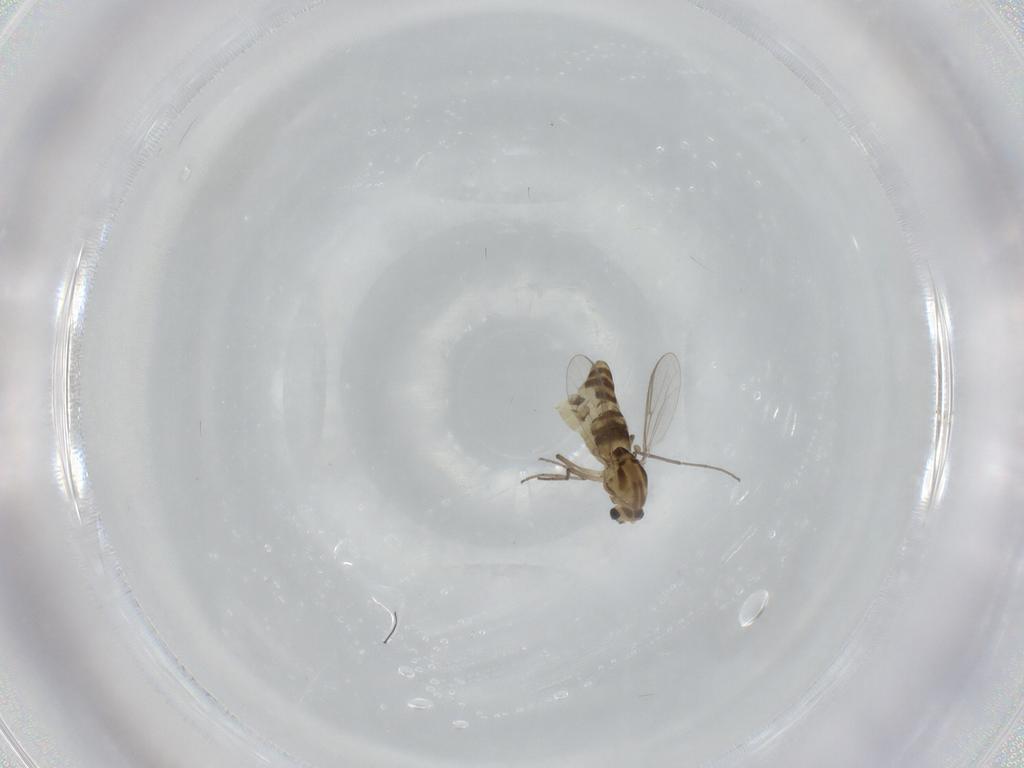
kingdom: Animalia
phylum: Arthropoda
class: Insecta
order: Diptera
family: Chironomidae
